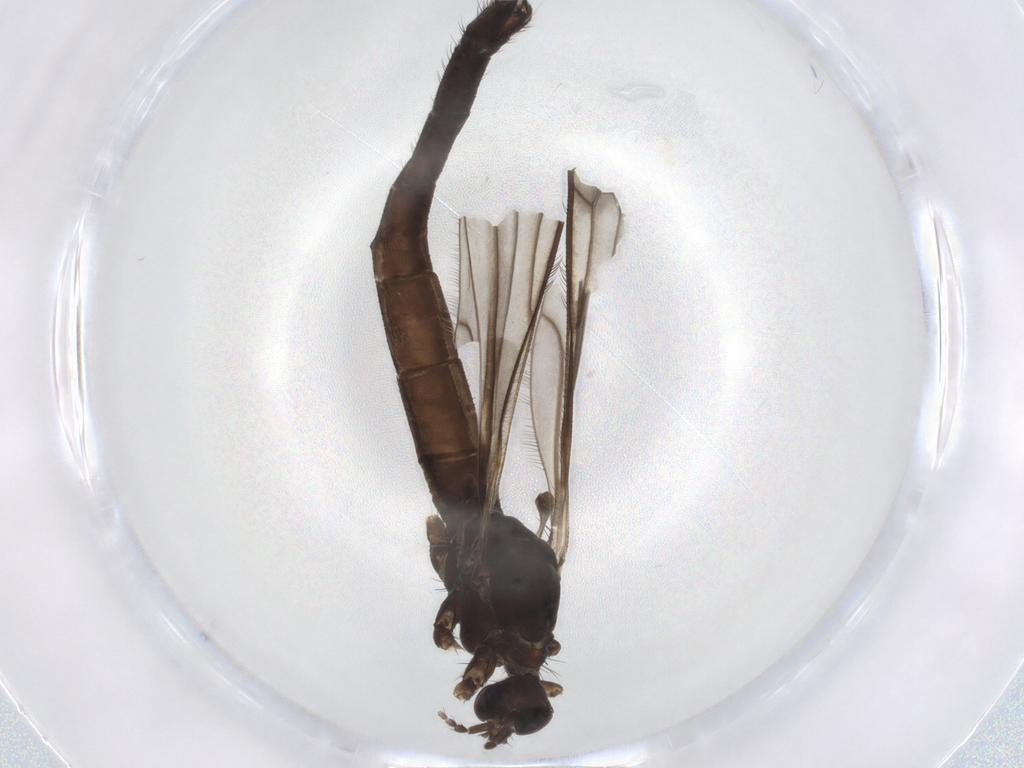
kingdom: Animalia
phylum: Arthropoda
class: Insecta
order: Diptera
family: Limoniidae
